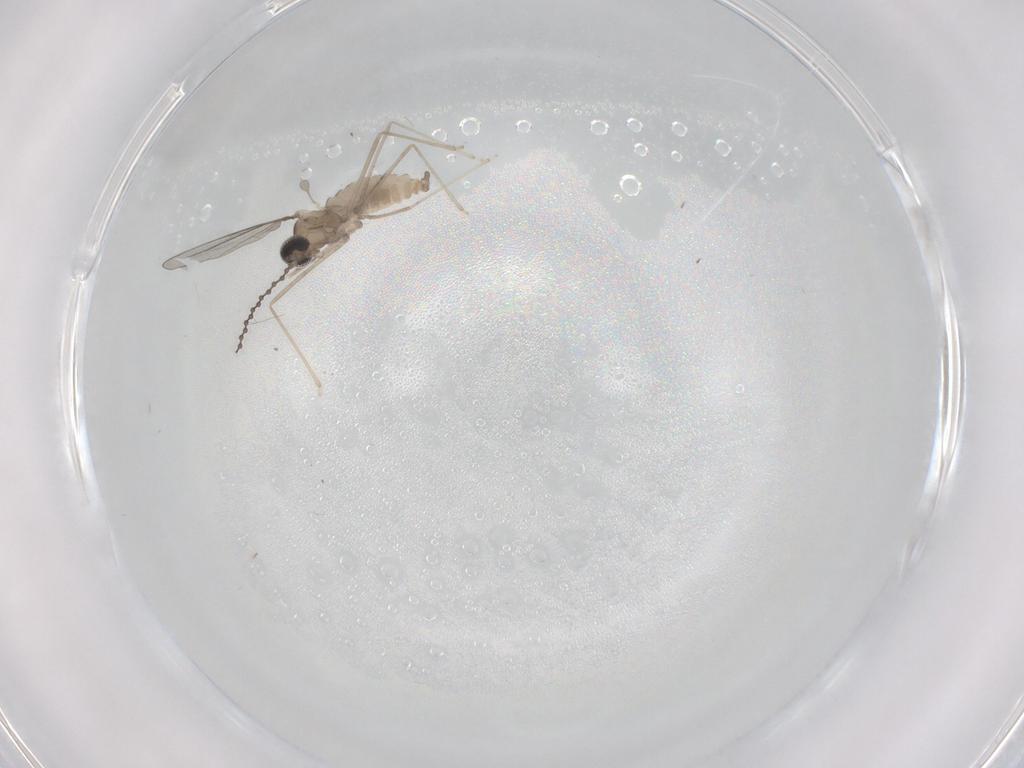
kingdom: Animalia
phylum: Arthropoda
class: Insecta
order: Diptera
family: Cecidomyiidae
